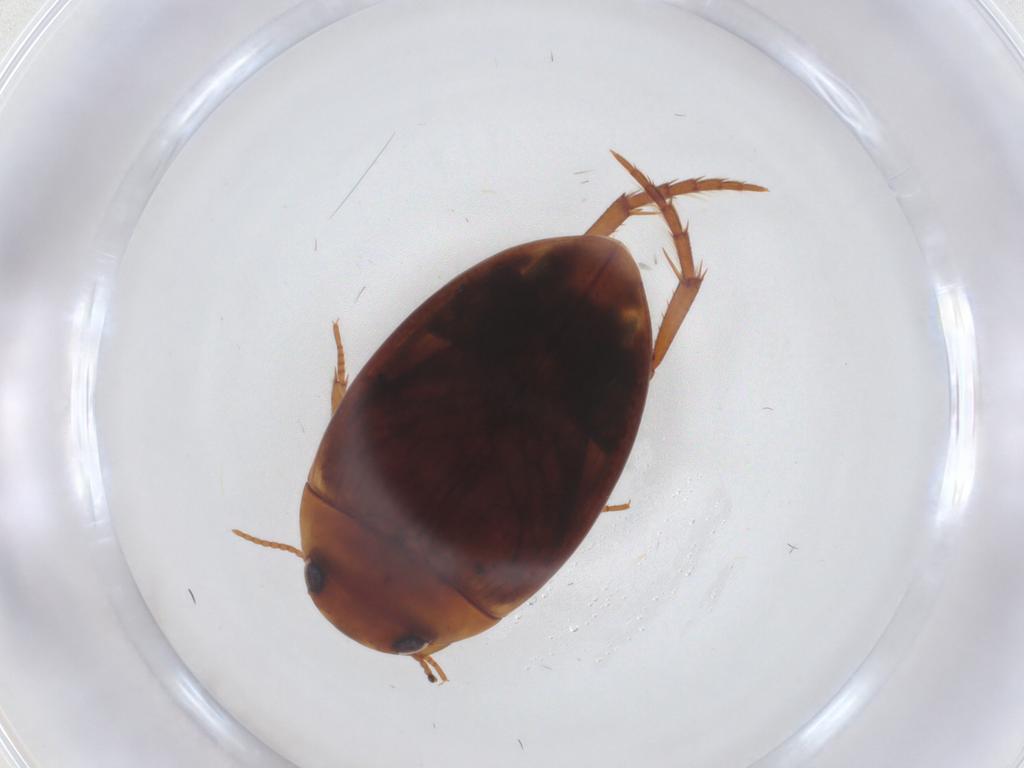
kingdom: Animalia
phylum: Arthropoda
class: Insecta
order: Coleoptera
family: Dytiscidae
